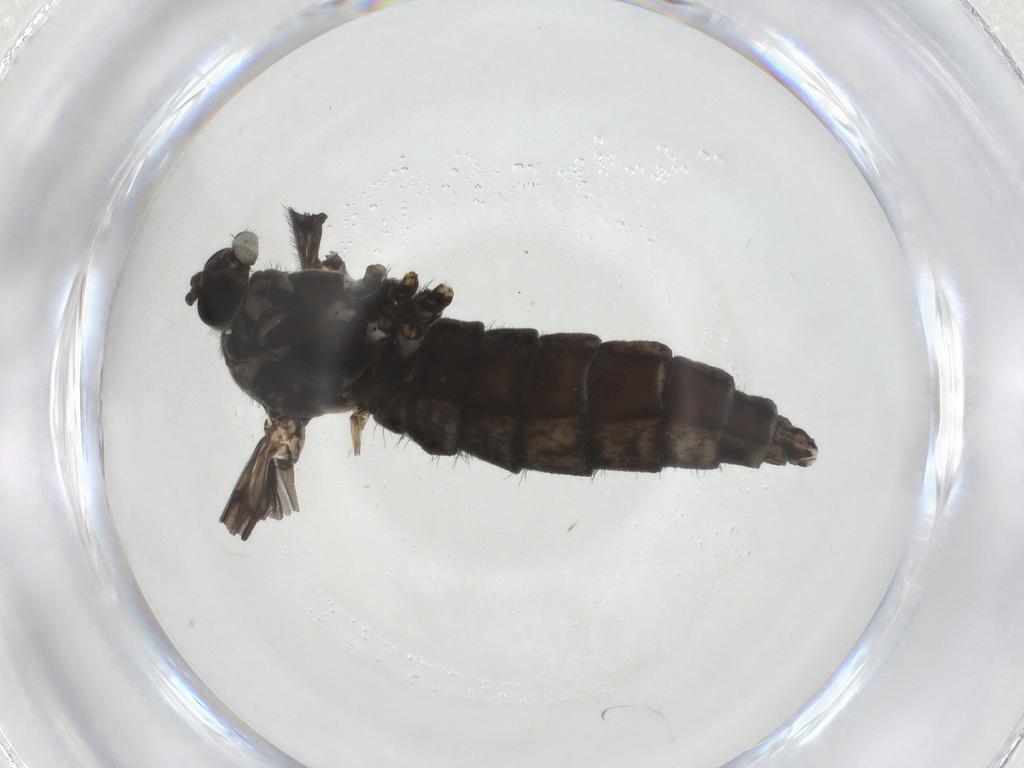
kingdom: Animalia
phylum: Arthropoda
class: Insecta
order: Diptera
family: Sciaridae
